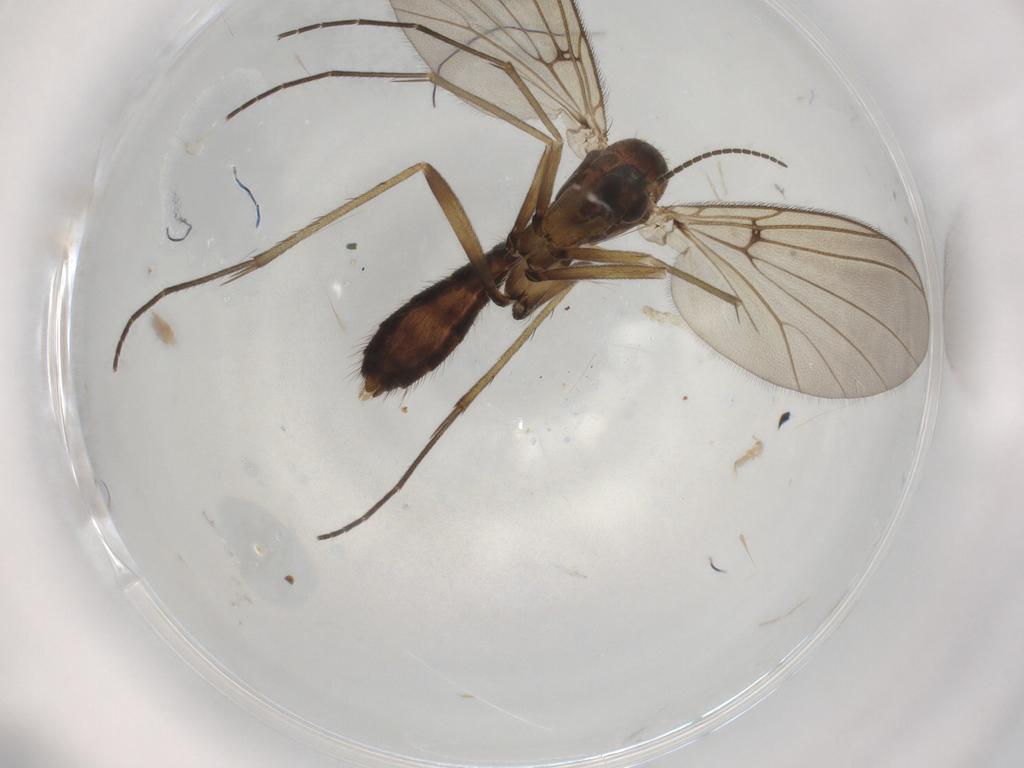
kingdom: Animalia
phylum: Arthropoda
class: Insecta
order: Diptera
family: Mycetophilidae
